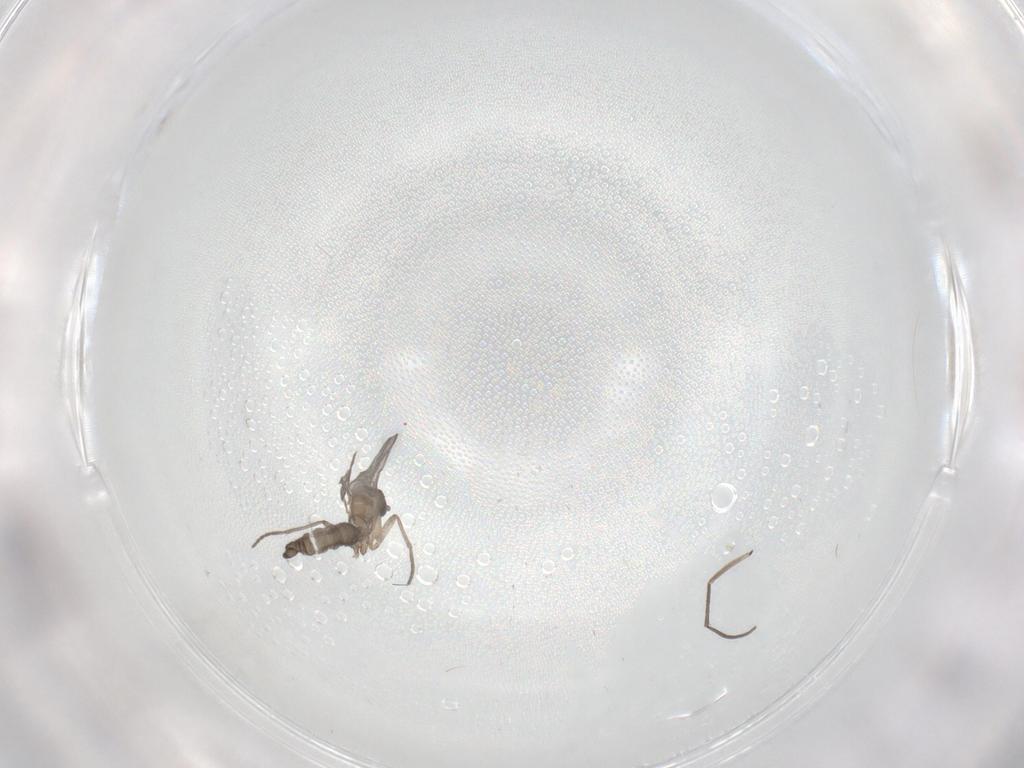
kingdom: Animalia
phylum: Arthropoda
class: Insecta
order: Diptera
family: Sciaridae
